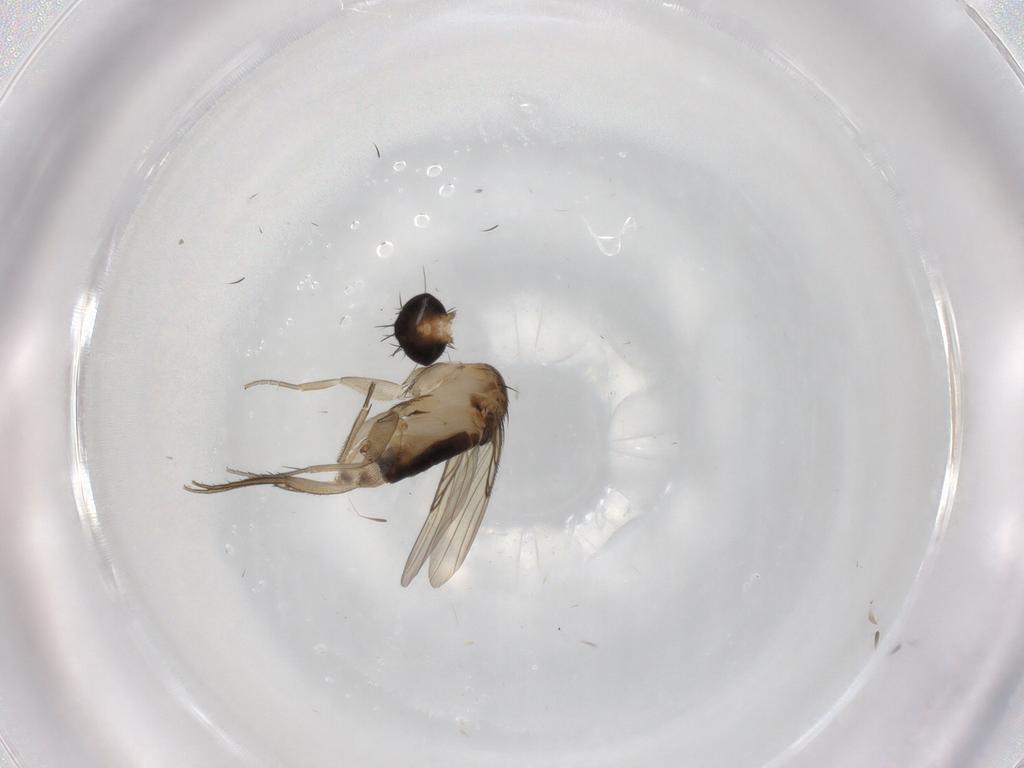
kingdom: Animalia
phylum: Arthropoda
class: Insecta
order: Diptera
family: Phoridae
